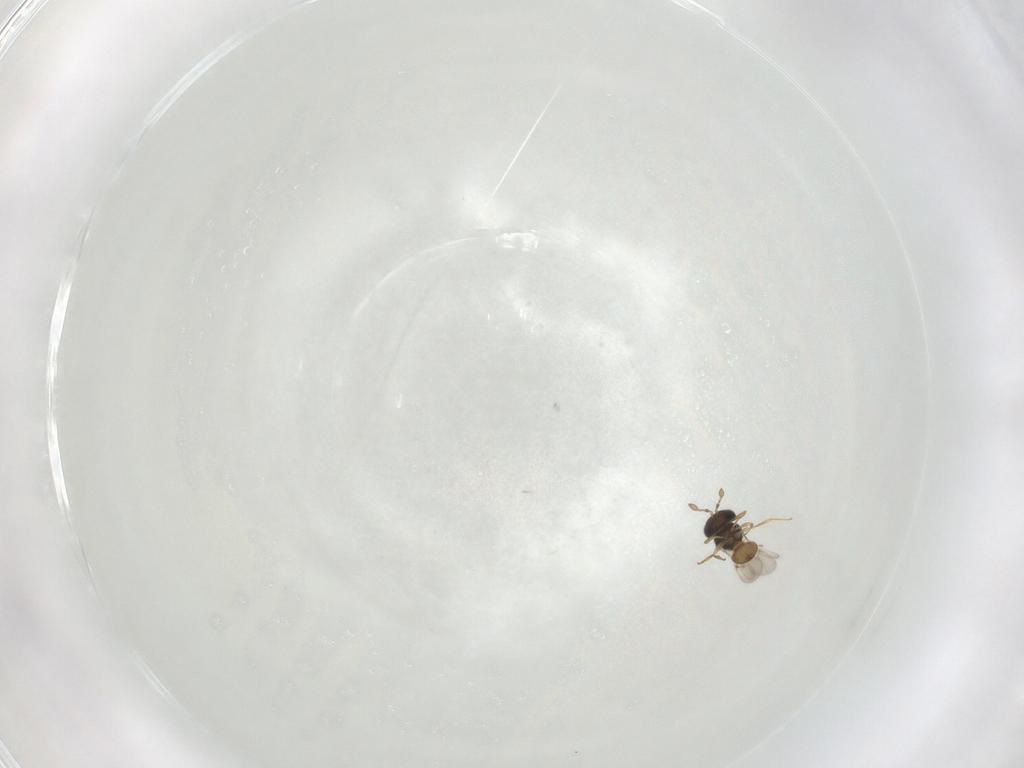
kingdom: Animalia
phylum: Arthropoda
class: Insecta
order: Hymenoptera
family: Scelionidae
